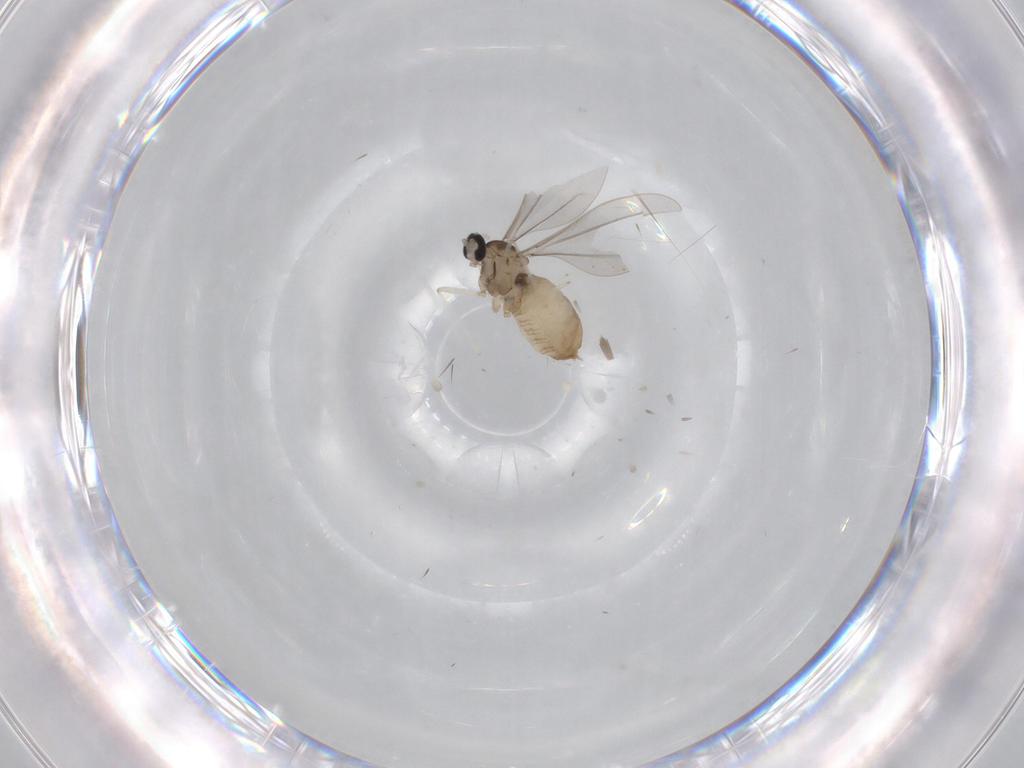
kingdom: Animalia
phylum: Arthropoda
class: Insecta
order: Diptera
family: Cecidomyiidae
